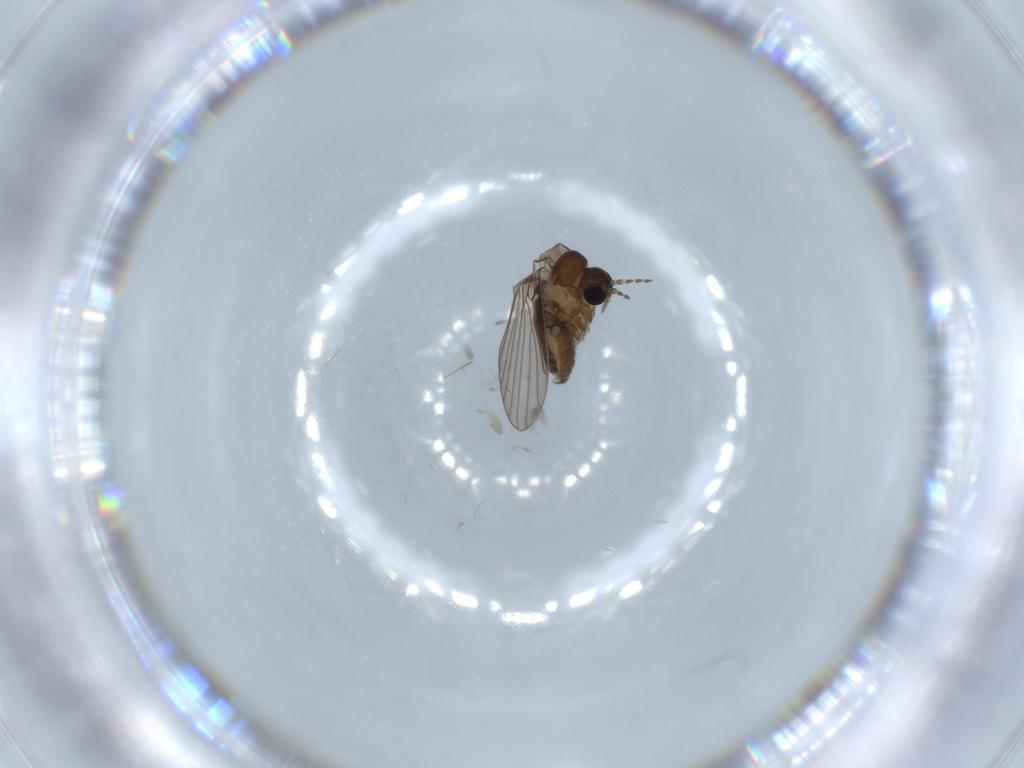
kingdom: Animalia
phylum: Arthropoda
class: Insecta
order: Diptera
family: Psychodidae
